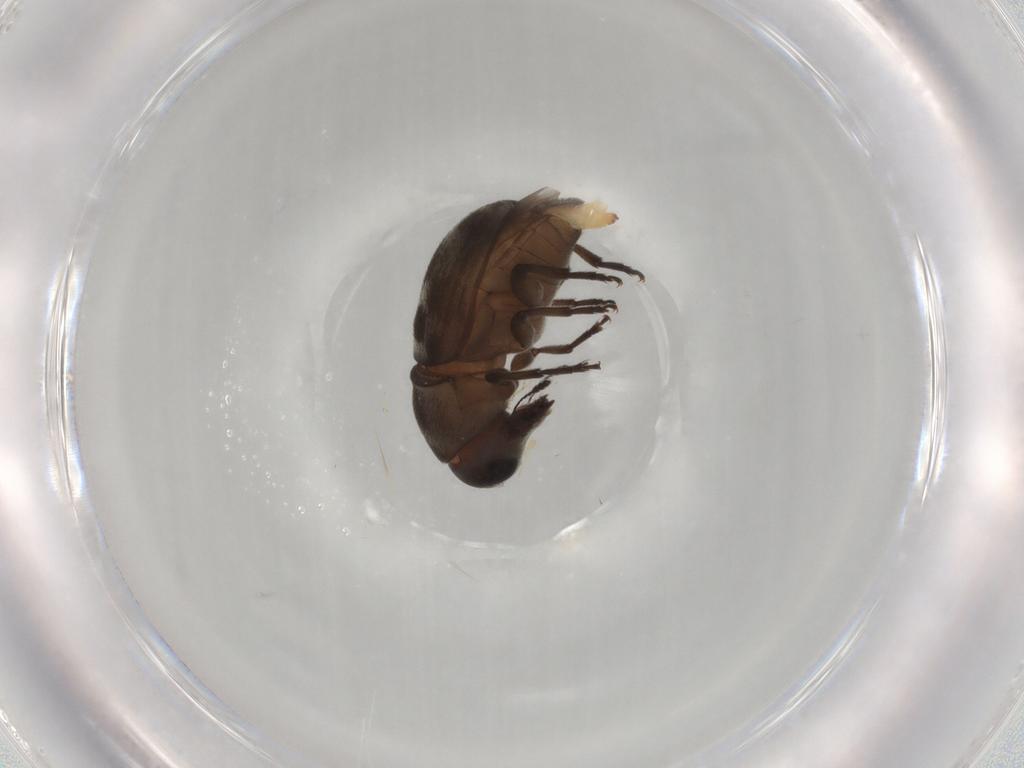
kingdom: Animalia
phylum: Arthropoda
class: Insecta
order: Coleoptera
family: Anthribidae
